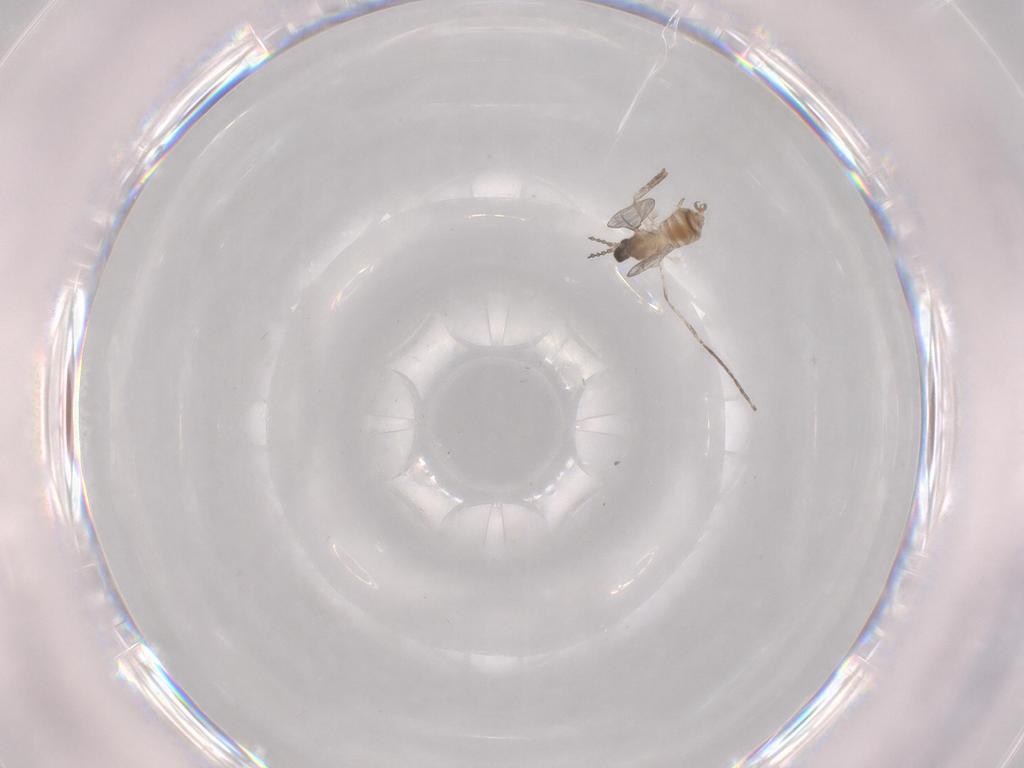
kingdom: Animalia
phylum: Arthropoda
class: Insecta
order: Diptera
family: Cecidomyiidae
